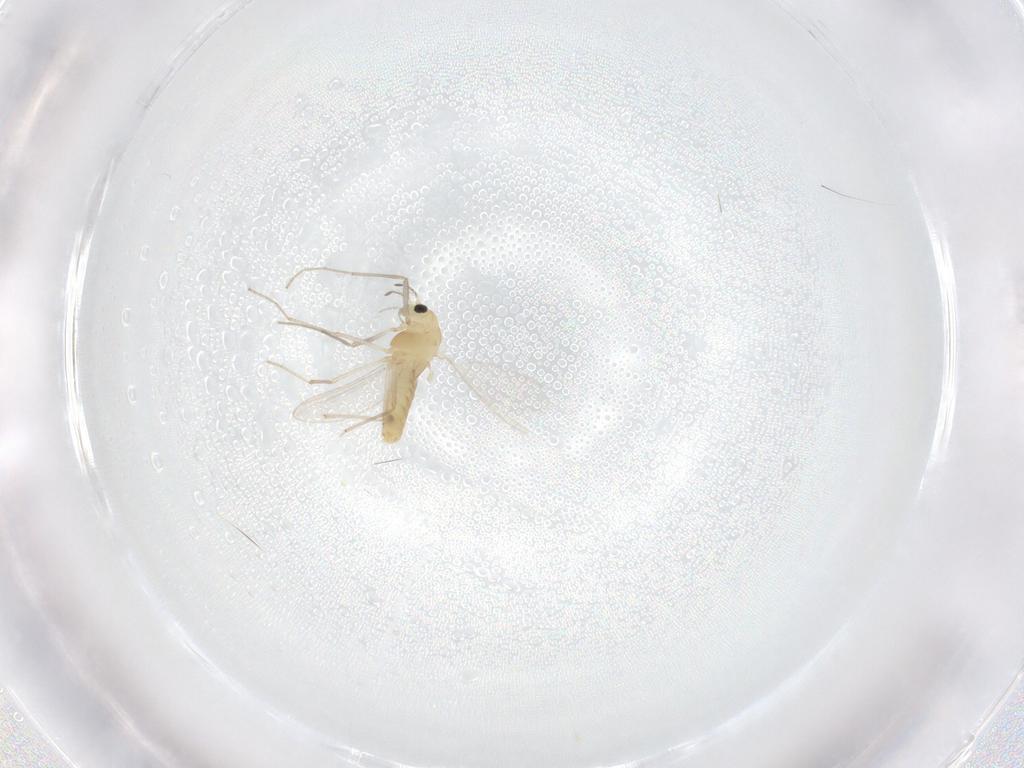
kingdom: Animalia
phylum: Arthropoda
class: Insecta
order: Diptera
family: Chironomidae
